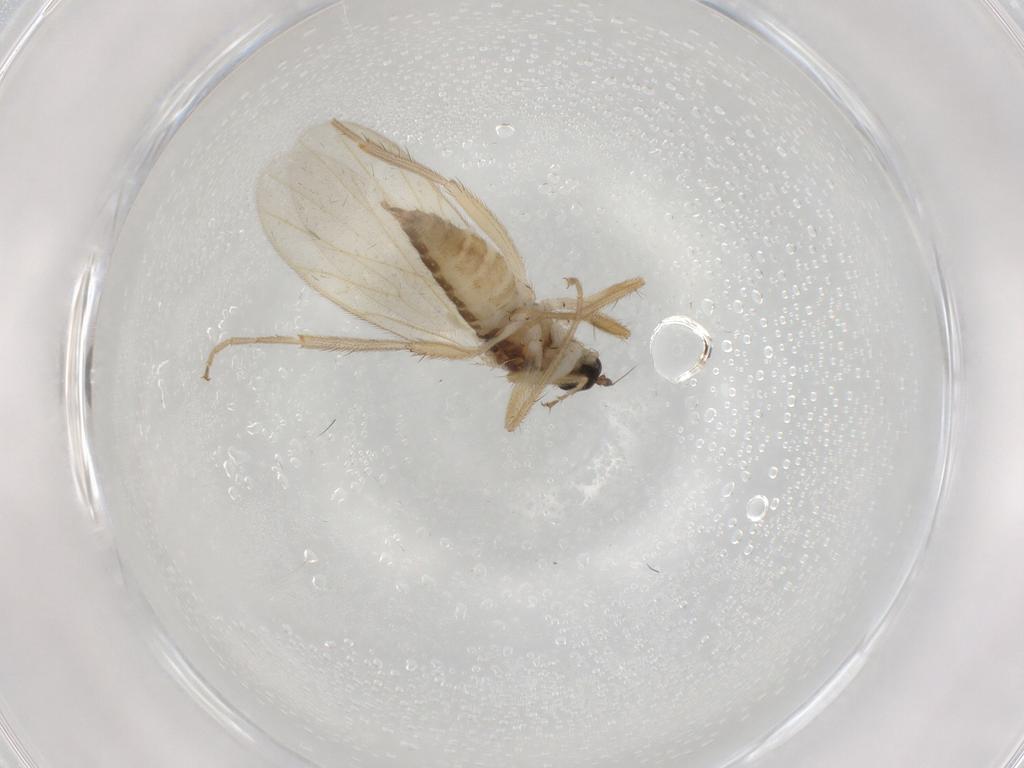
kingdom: Animalia
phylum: Arthropoda
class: Insecta
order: Diptera
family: Hybotidae
